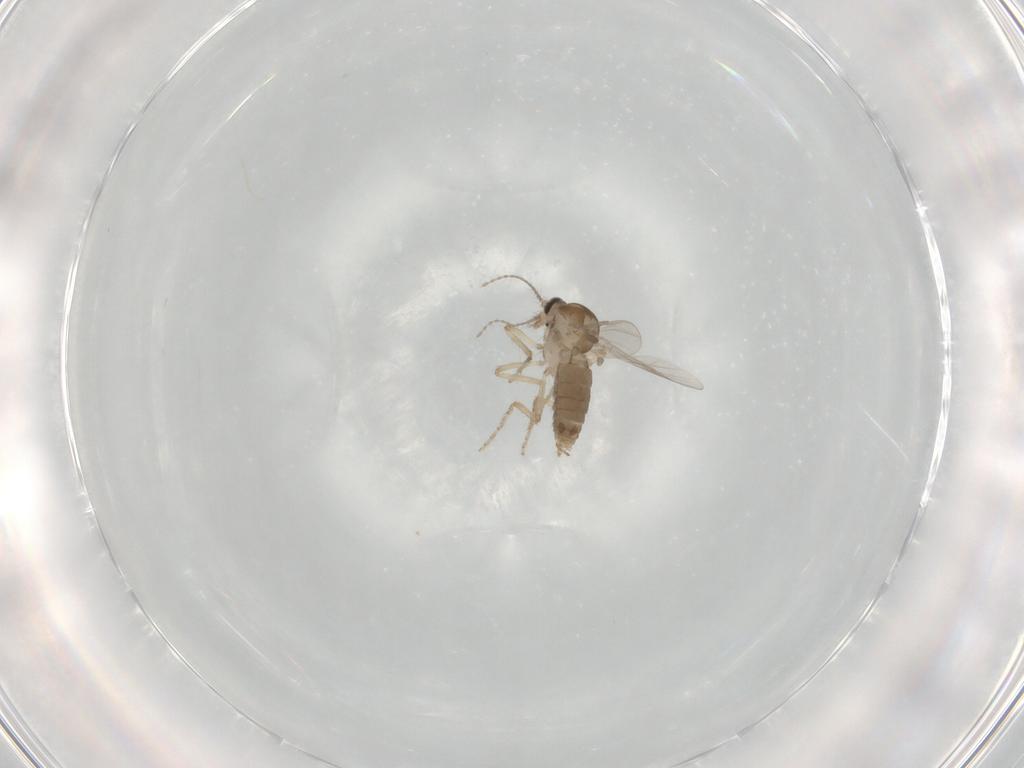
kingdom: Animalia
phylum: Arthropoda
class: Insecta
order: Diptera
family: Ceratopogonidae
